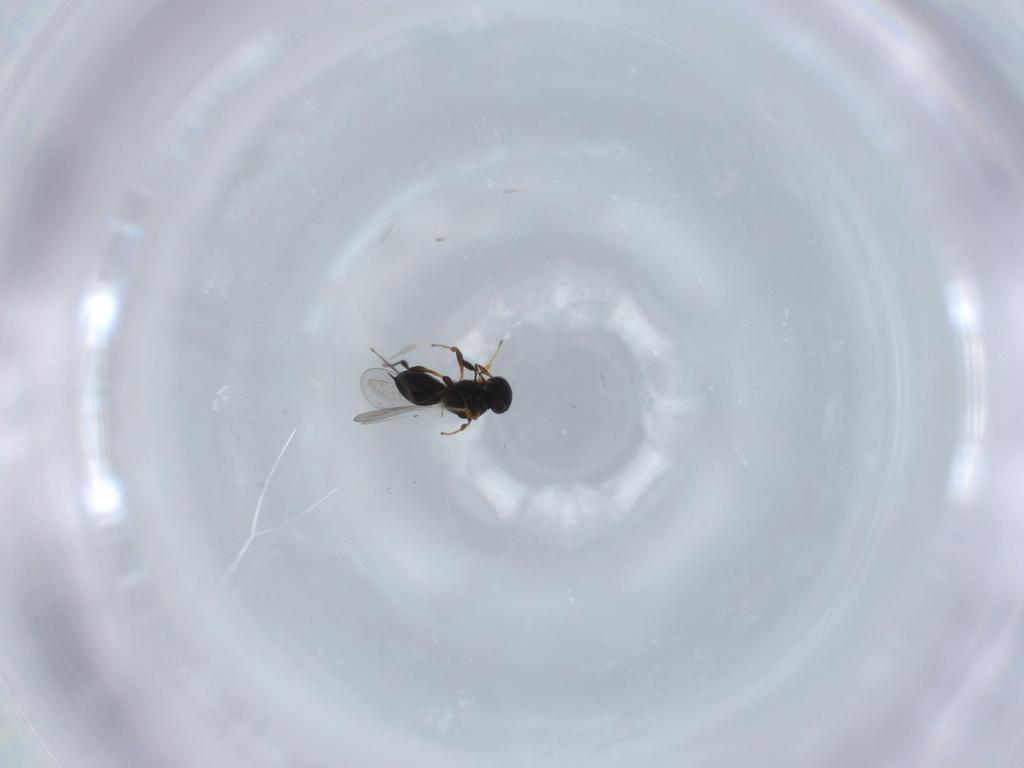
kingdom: Animalia
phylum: Arthropoda
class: Insecta
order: Hymenoptera
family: Platygastridae
